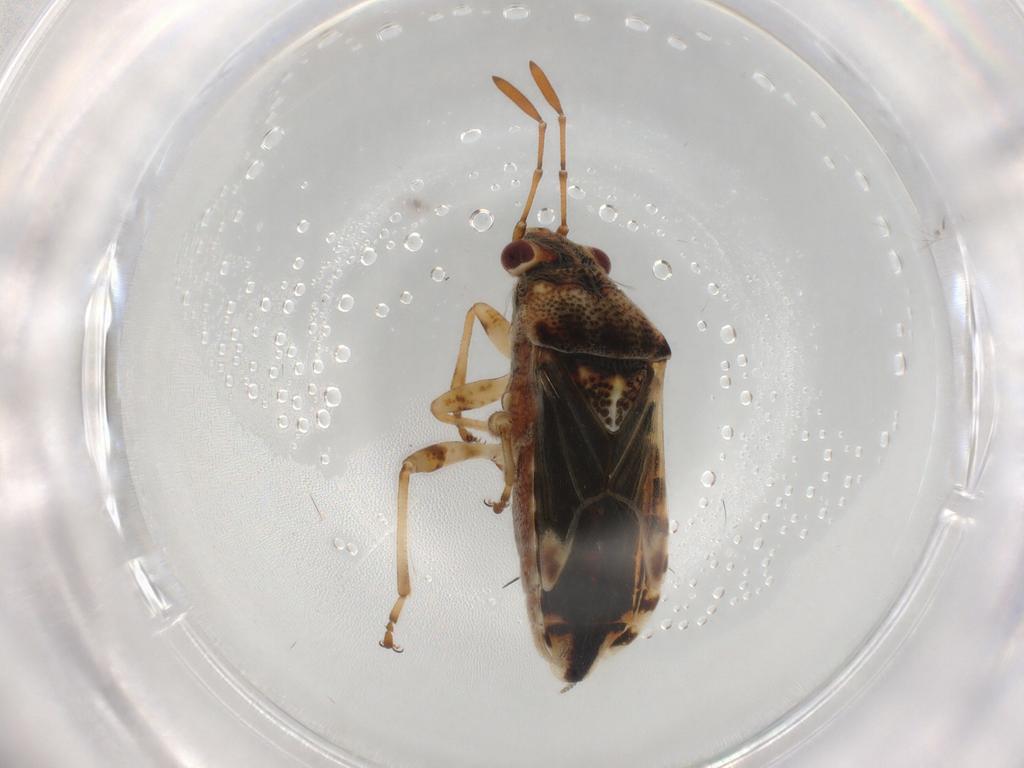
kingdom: Animalia
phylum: Arthropoda
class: Insecta
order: Hemiptera
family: Lygaeidae
